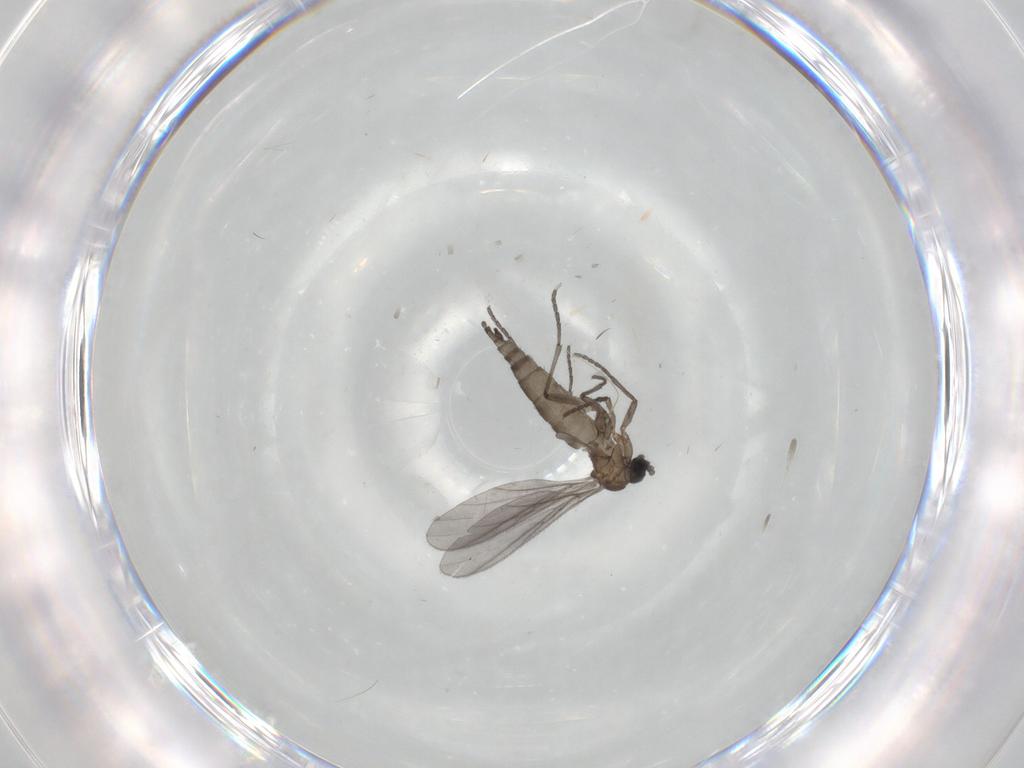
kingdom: Animalia
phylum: Arthropoda
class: Insecta
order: Diptera
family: Sciaridae
